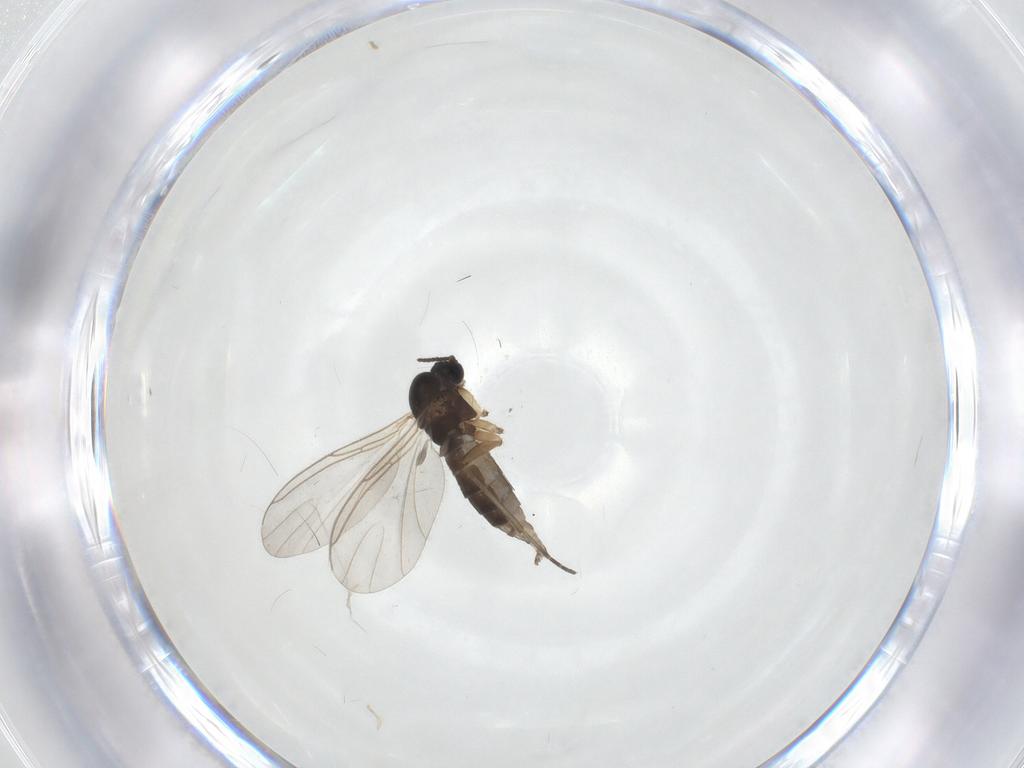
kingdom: Animalia
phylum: Arthropoda
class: Insecta
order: Diptera
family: Sciaridae
